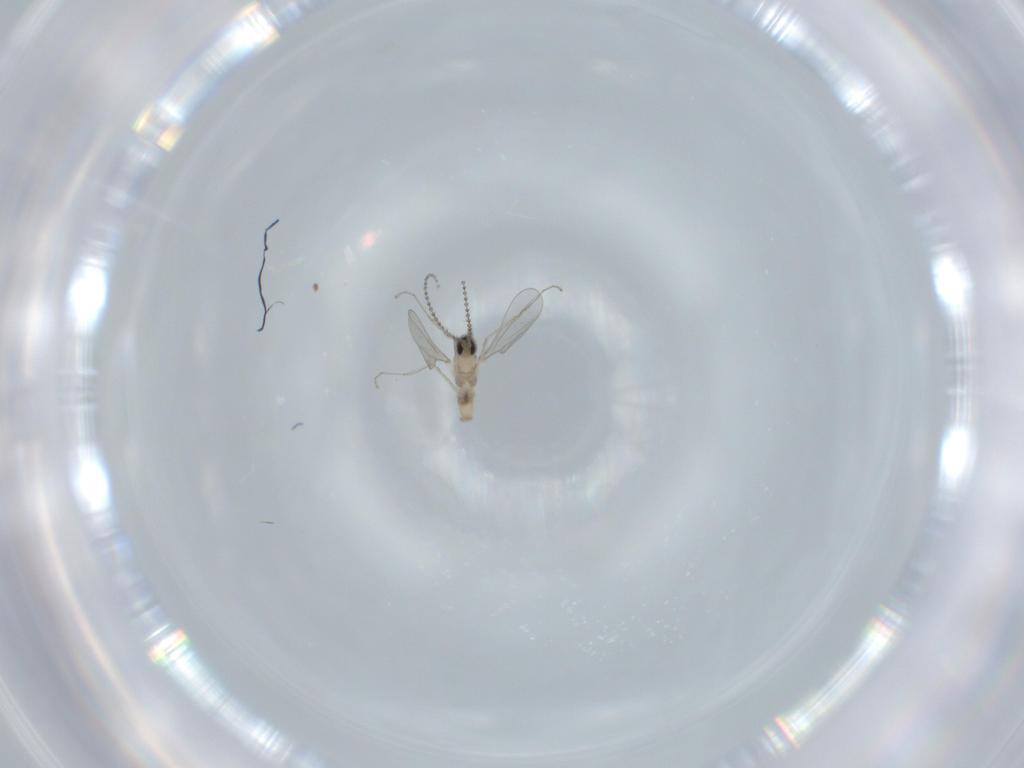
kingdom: Animalia
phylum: Arthropoda
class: Insecta
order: Diptera
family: Cecidomyiidae
